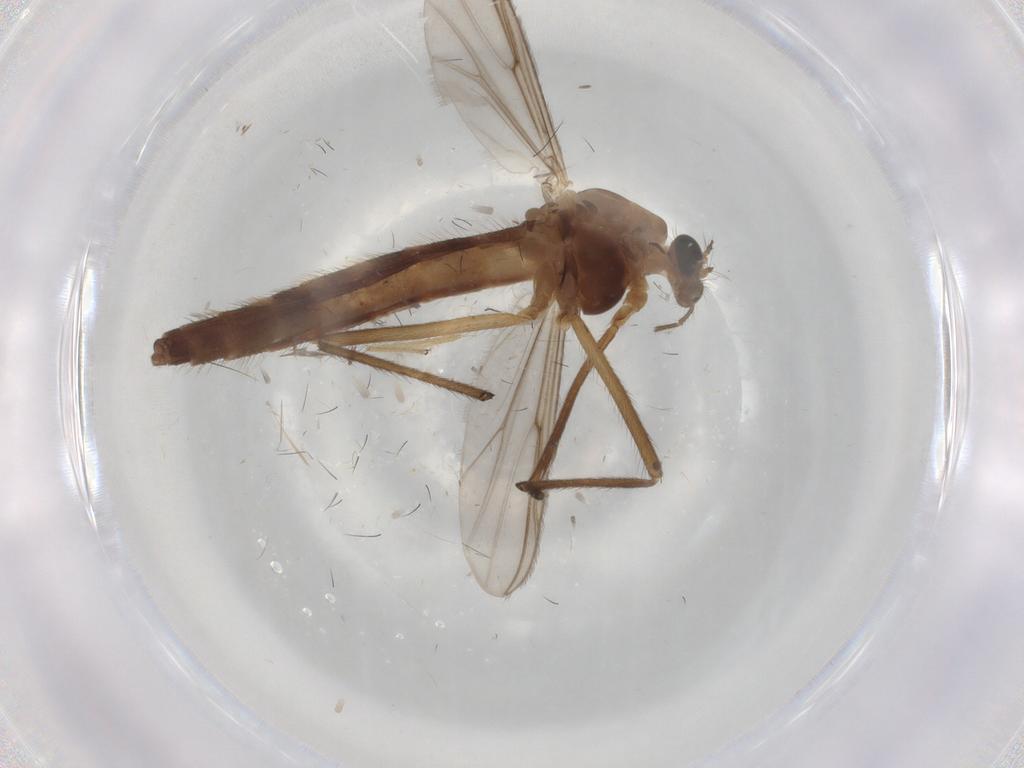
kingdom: Animalia
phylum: Arthropoda
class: Insecta
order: Diptera
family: Tabanidae
